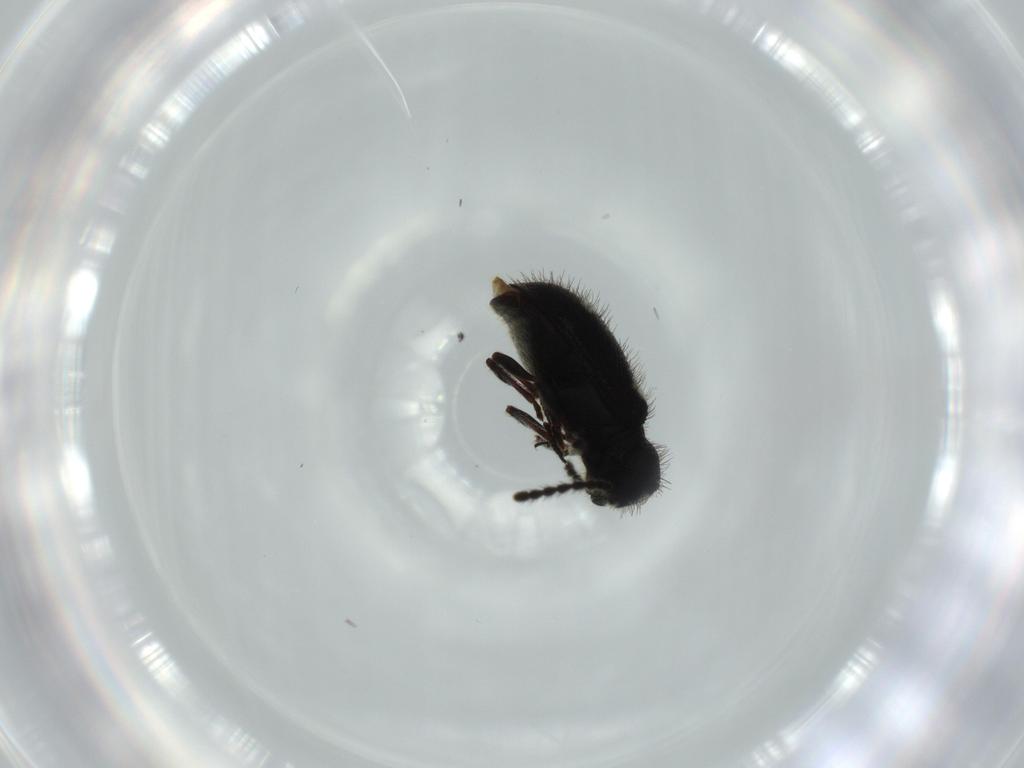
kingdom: Animalia
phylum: Arthropoda
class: Insecta
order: Coleoptera
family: Ptinidae
